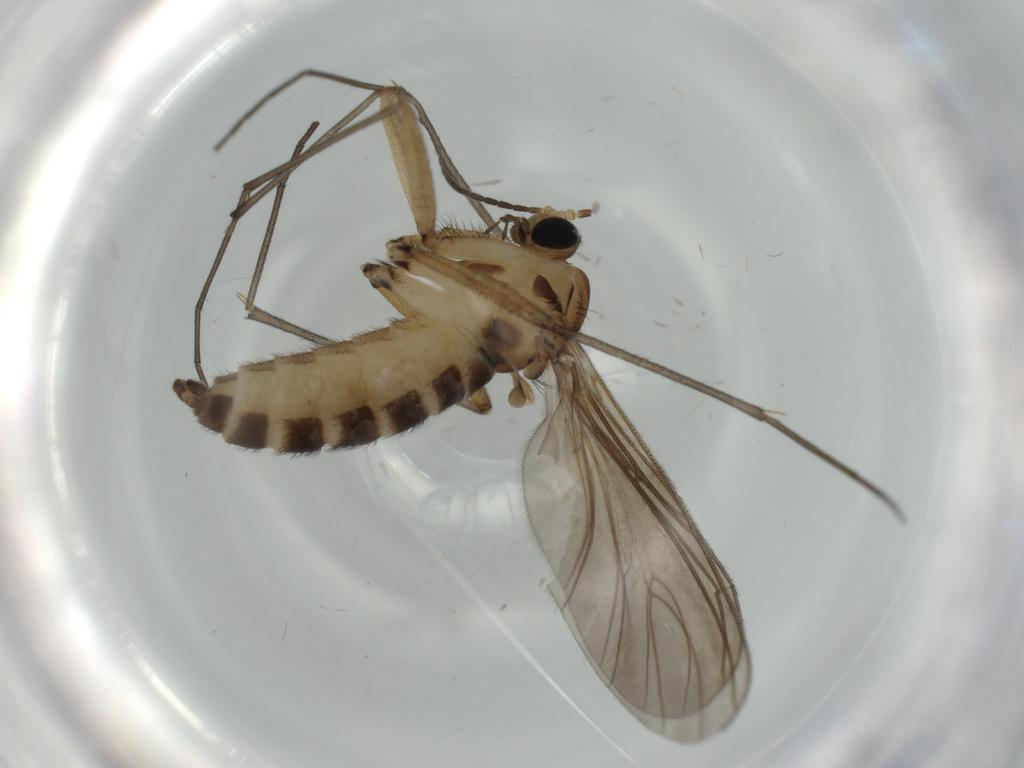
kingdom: Animalia
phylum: Arthropoda
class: Insecta
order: Diptera
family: Sciaridae
